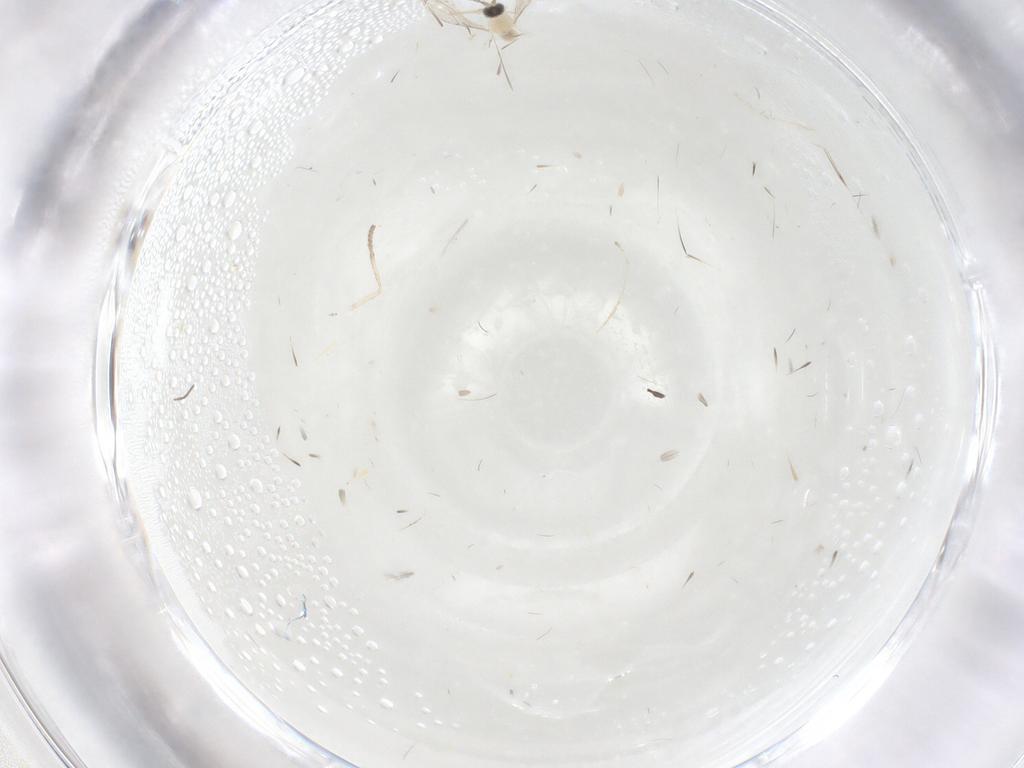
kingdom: Animalia
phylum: Arthropoda
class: Insecta
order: Diptera
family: Cecidomyiidae
